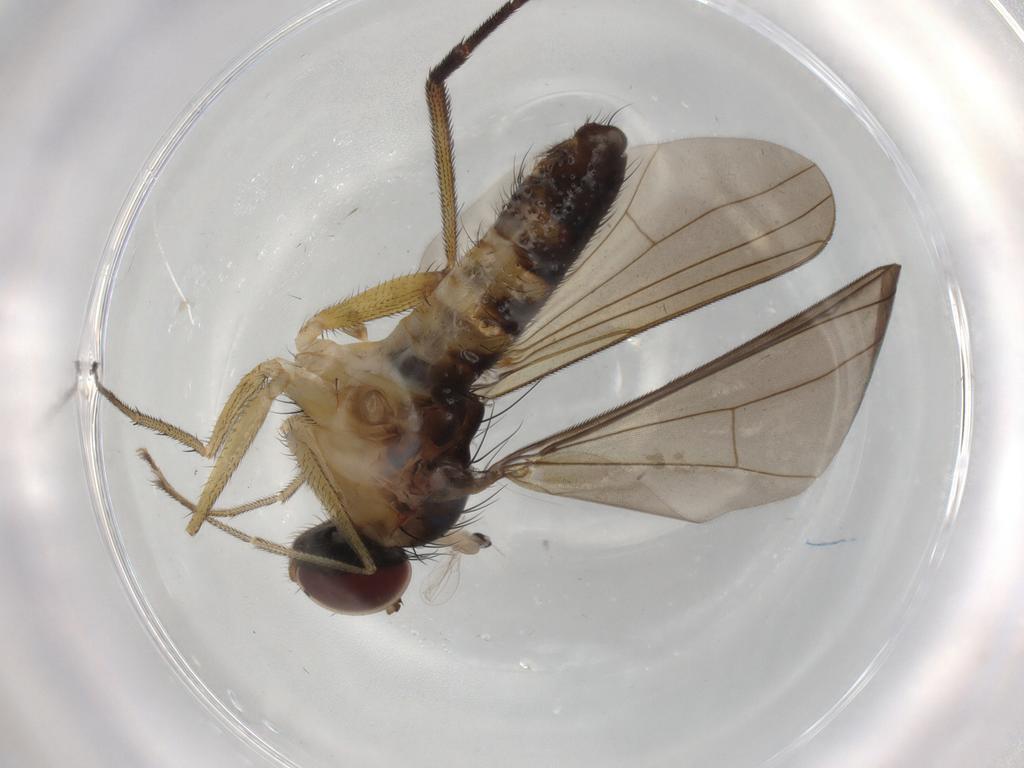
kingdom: Animalia
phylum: Arthropoda
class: Insecta
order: Diptera
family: Dolichopodidae
